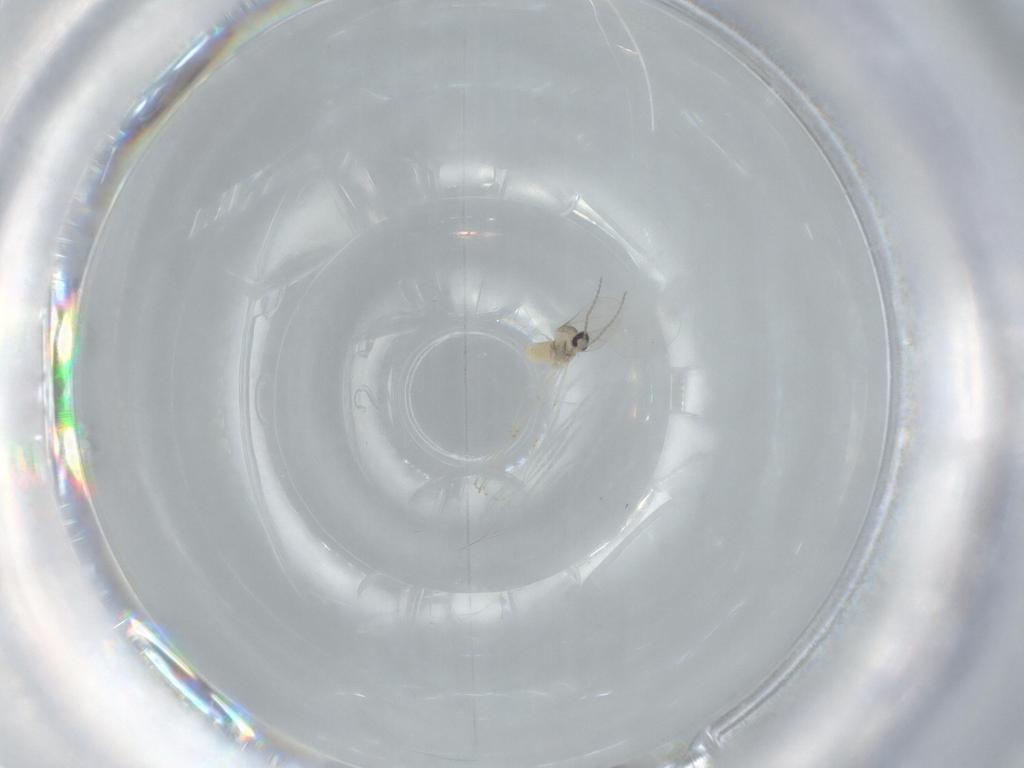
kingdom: Animalia
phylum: Arthropoda
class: Insecta
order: Diptera
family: Cecidomyiidae
